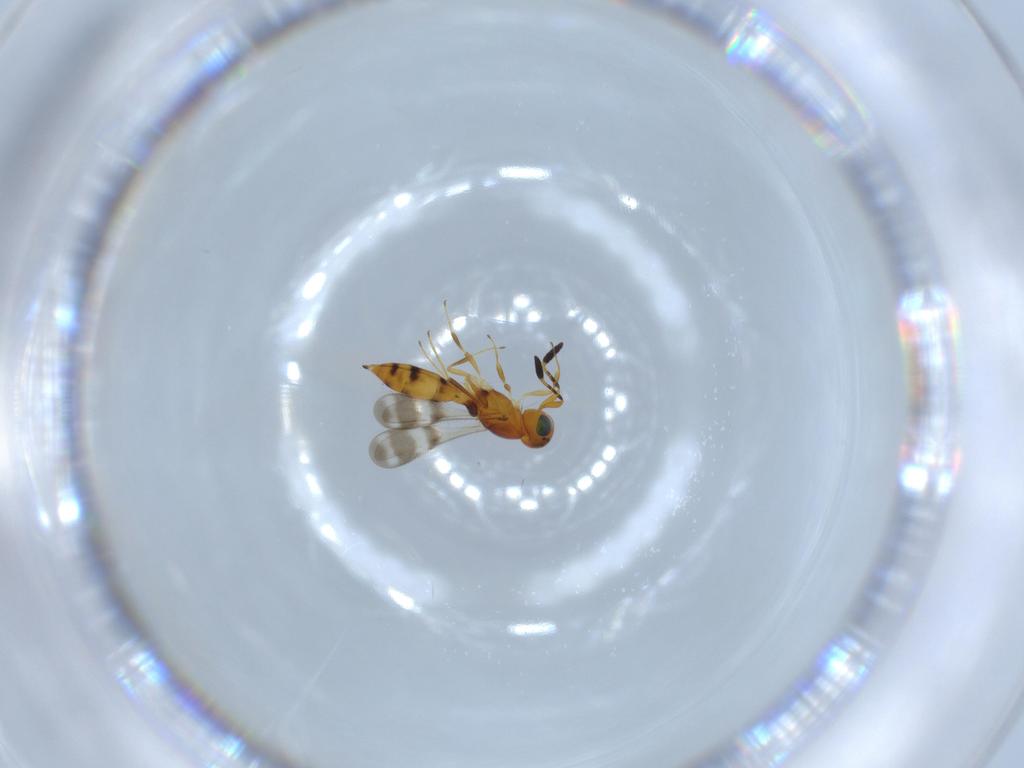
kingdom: Animalia
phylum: Arthropoda
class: Insecta
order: Hymenoptera
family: Scelionidae
